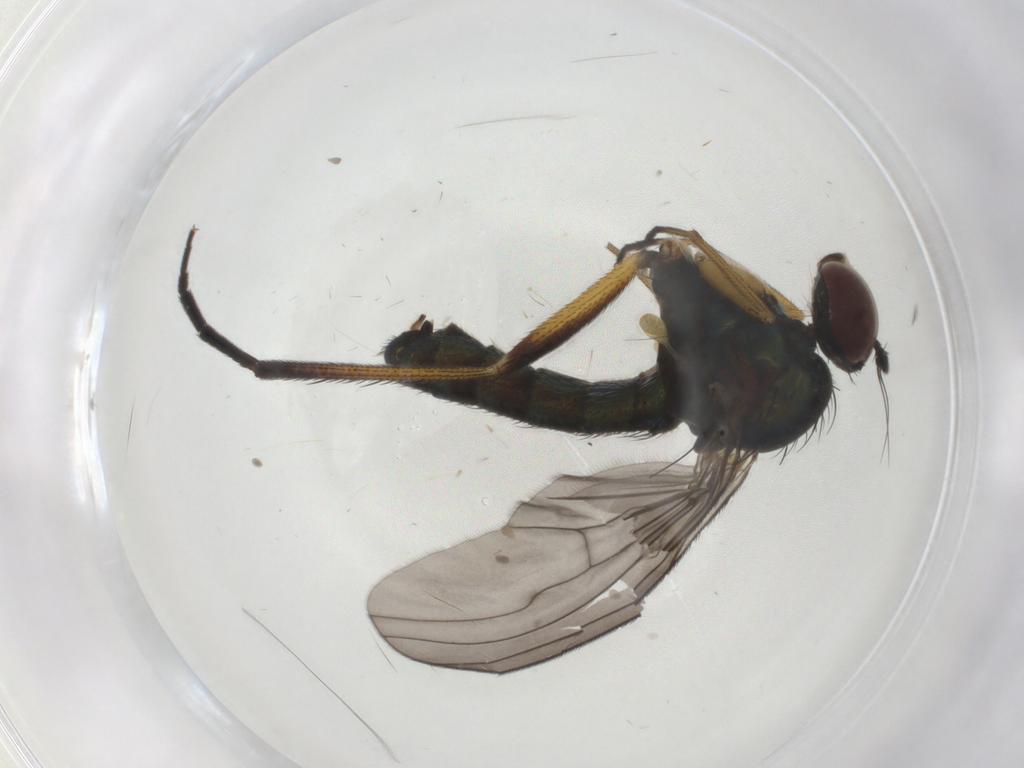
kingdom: Animalia
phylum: Arthropoda
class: Insecta
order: Diptera
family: Dolichopodidae
